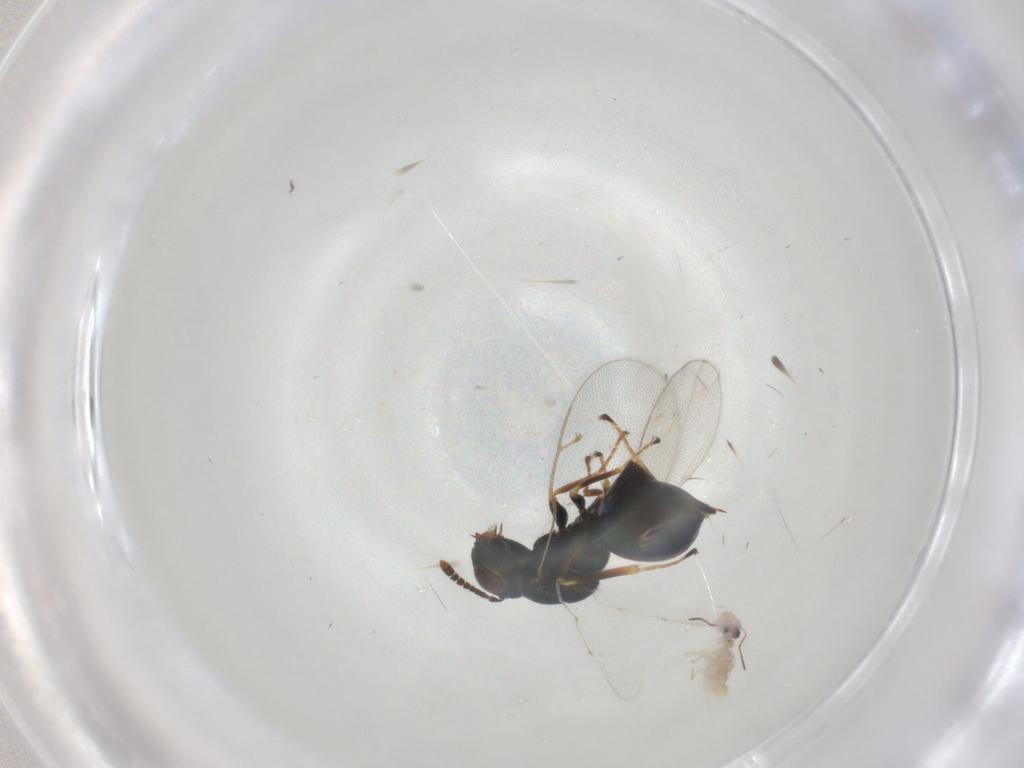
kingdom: Animalia
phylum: Arthropoda
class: Insecta
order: Hymenoptera
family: Pteromalidae
